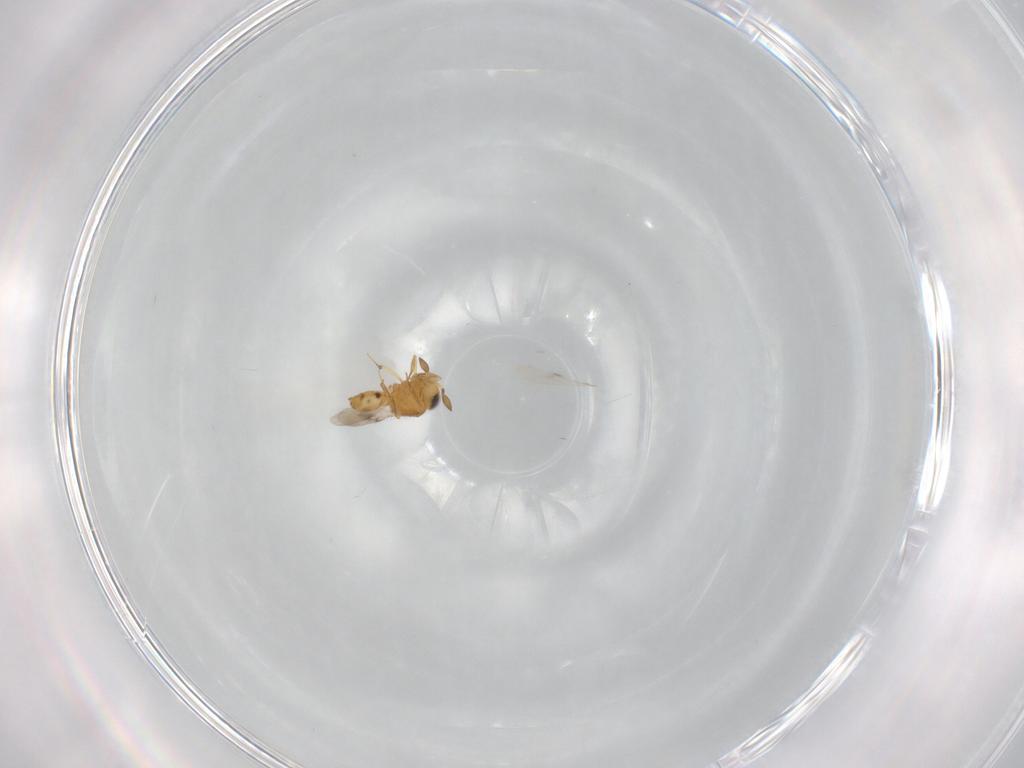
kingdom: Animalia
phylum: Arthropoda
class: Insecta
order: Hymenoptera
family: Scelionidae
